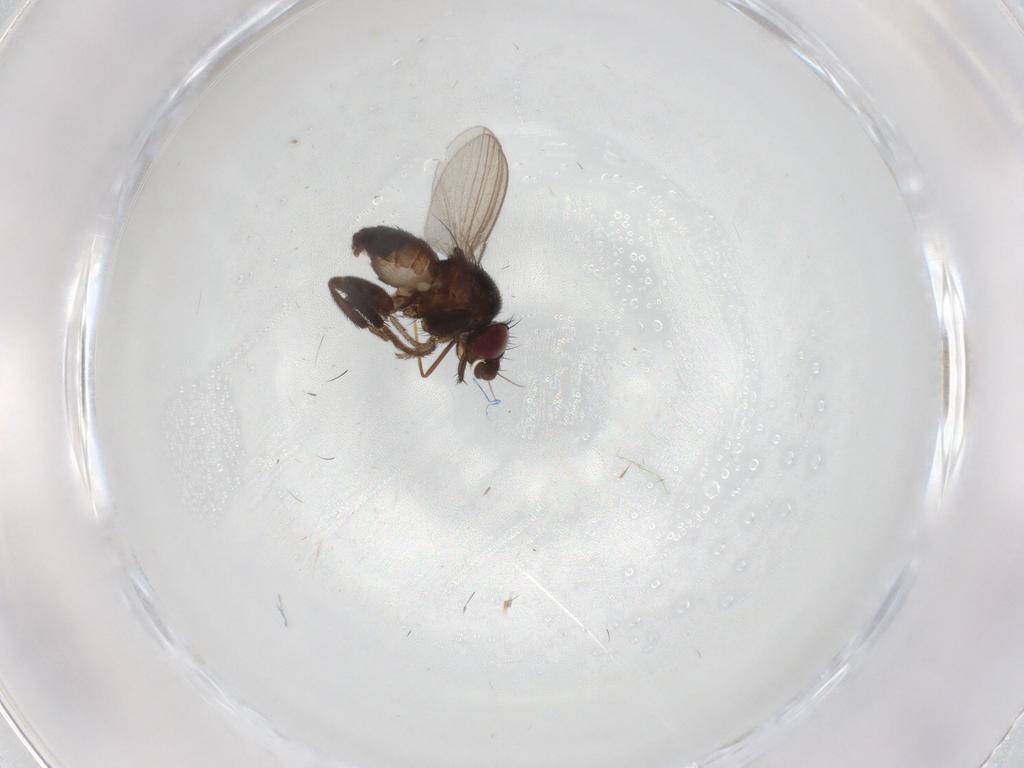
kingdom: Animalia
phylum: Arthropoda
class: Insecta
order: Diptera
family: Milichiidae
